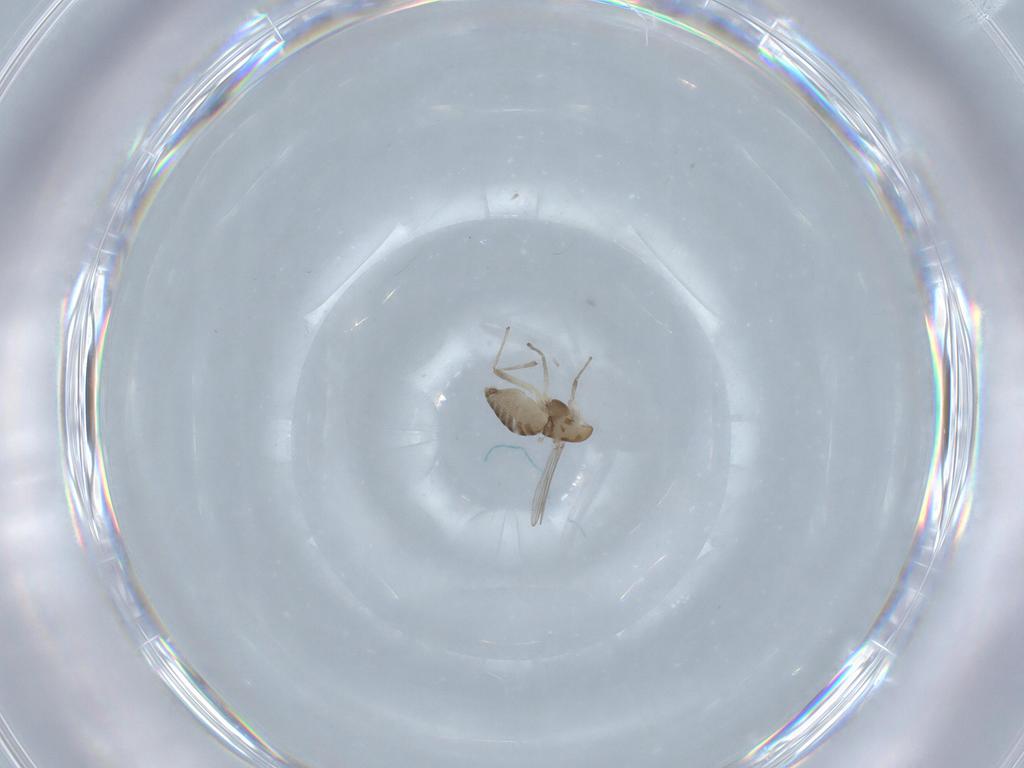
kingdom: Animalia
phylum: Arthropoda
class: Insecta
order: Diptera
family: Chironomidae
